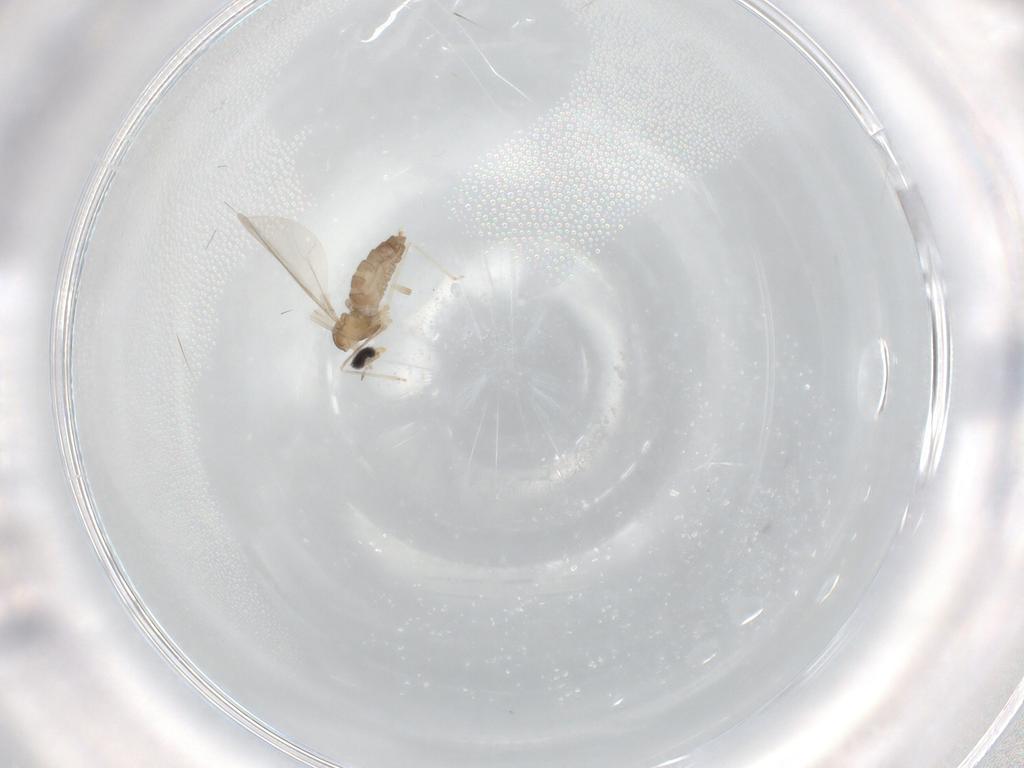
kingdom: Animalia
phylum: Arthropoda
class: Insecta
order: Diptera
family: Chironomidae
